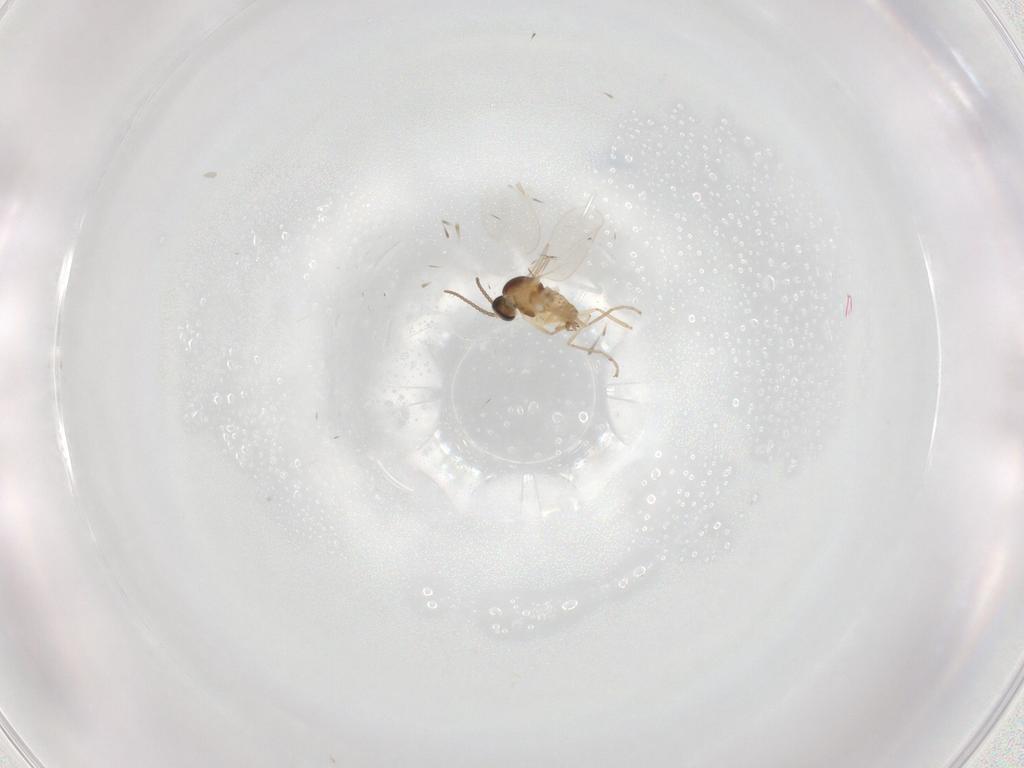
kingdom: Animalia
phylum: Arthropoda
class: Insecta
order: Diptera
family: Cecidomyiidae
